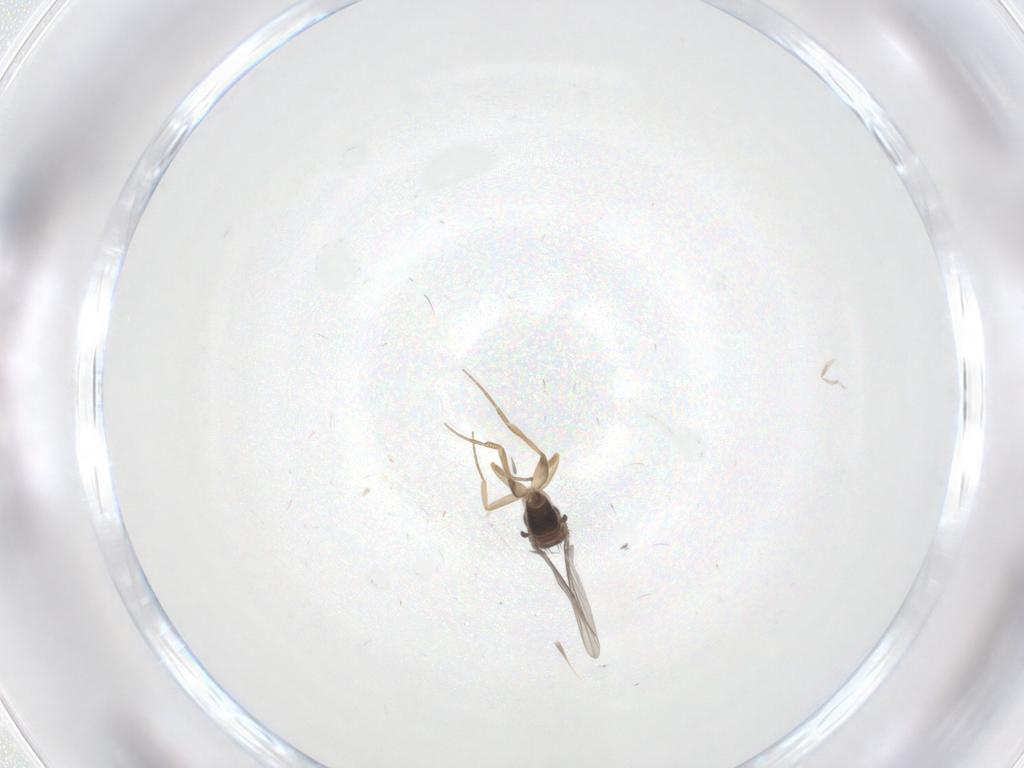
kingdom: Animalia
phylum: Arthropoda
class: Insecta
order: Diptera
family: Phoridae
